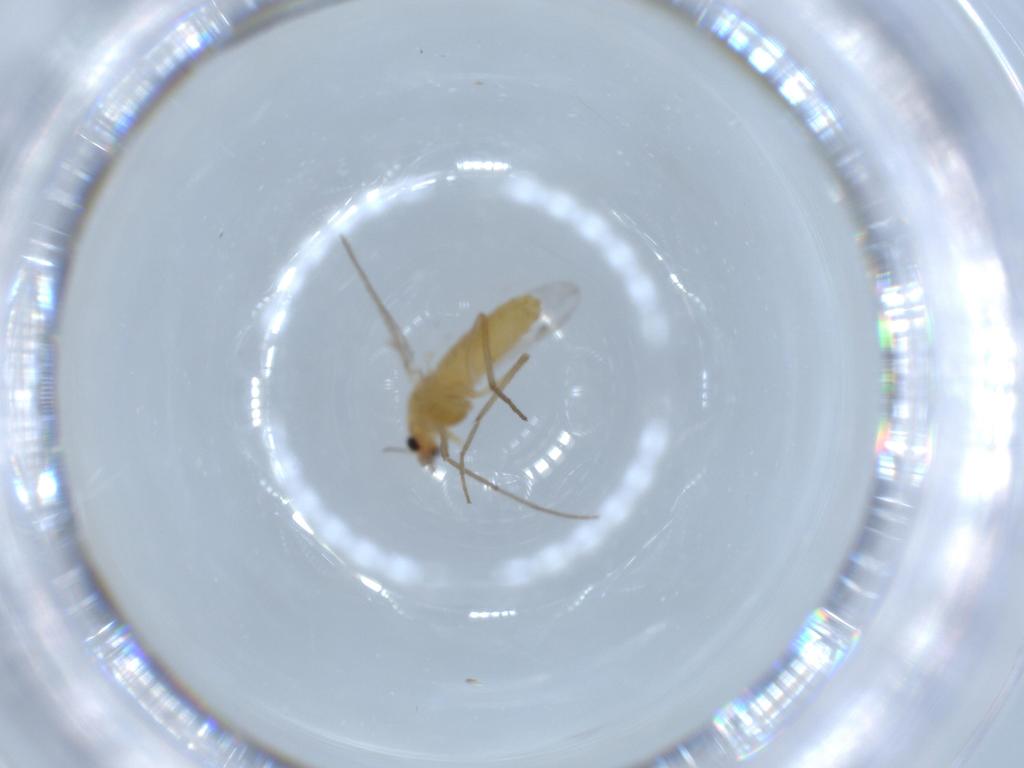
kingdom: Animalia
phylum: Arthropoda
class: Insecta
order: Diptera
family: Chironomidae
